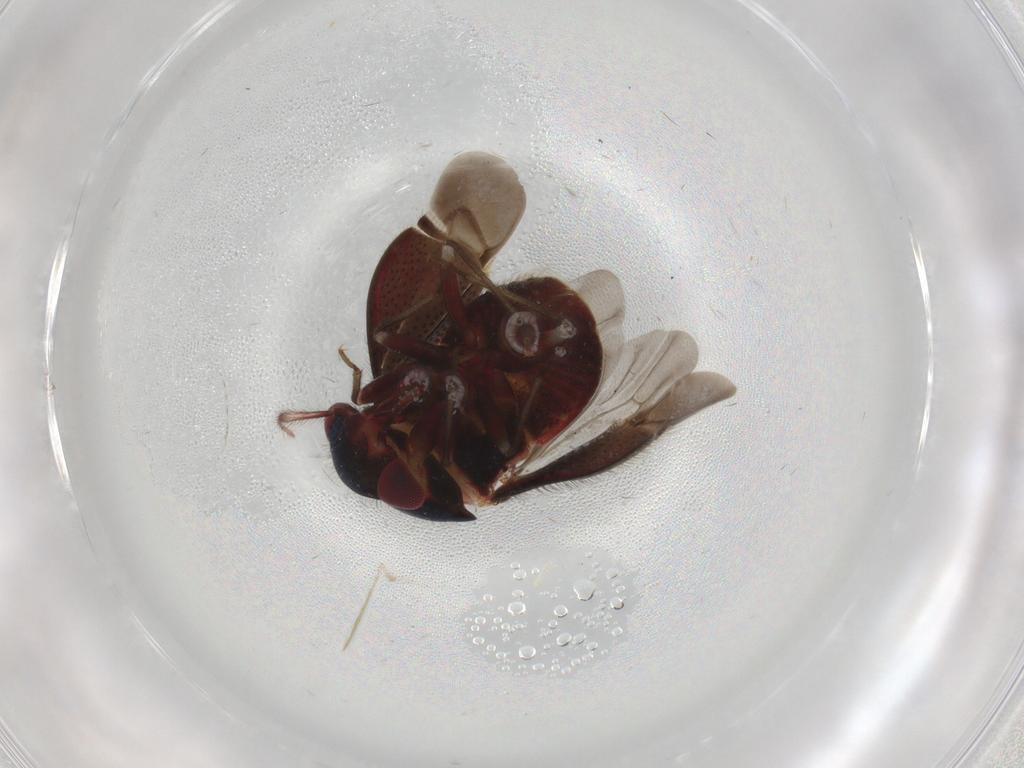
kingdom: Animalia
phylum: Arthropoda
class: Insecta
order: Hemiptera
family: Miridae
